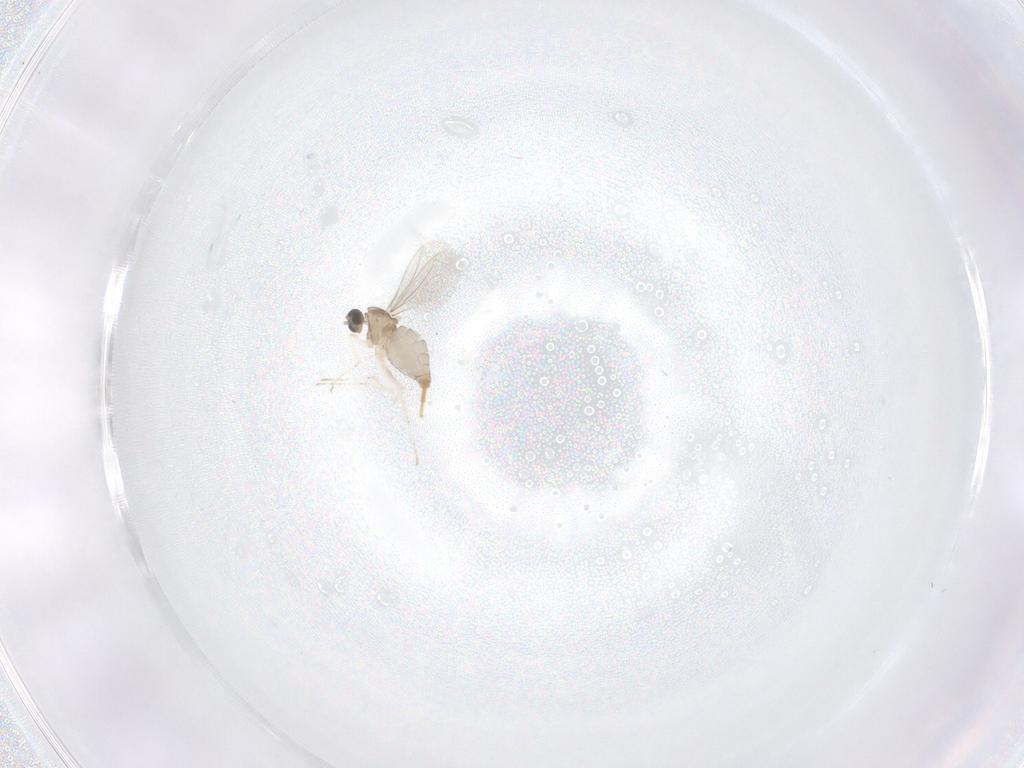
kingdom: Animalia
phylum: Arthropoda
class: Insecta
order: Diptera
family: Cecidomyiidae
